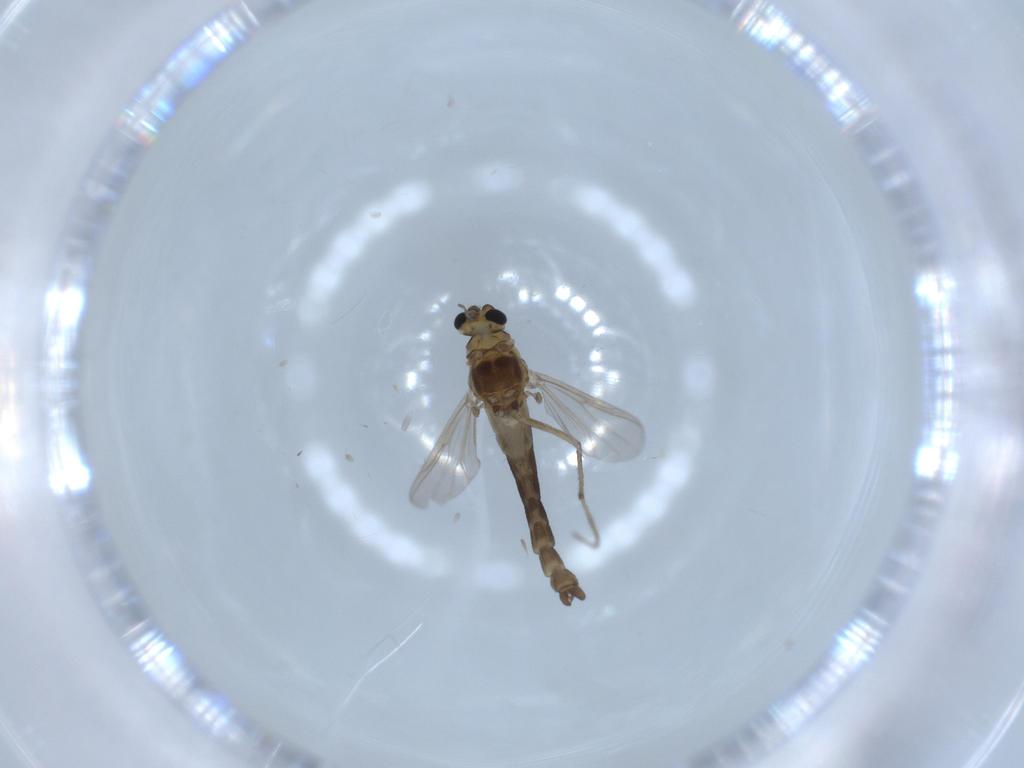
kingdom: Animalia
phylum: Arthropoda
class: Insecta
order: Diptera
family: Chironomidae
